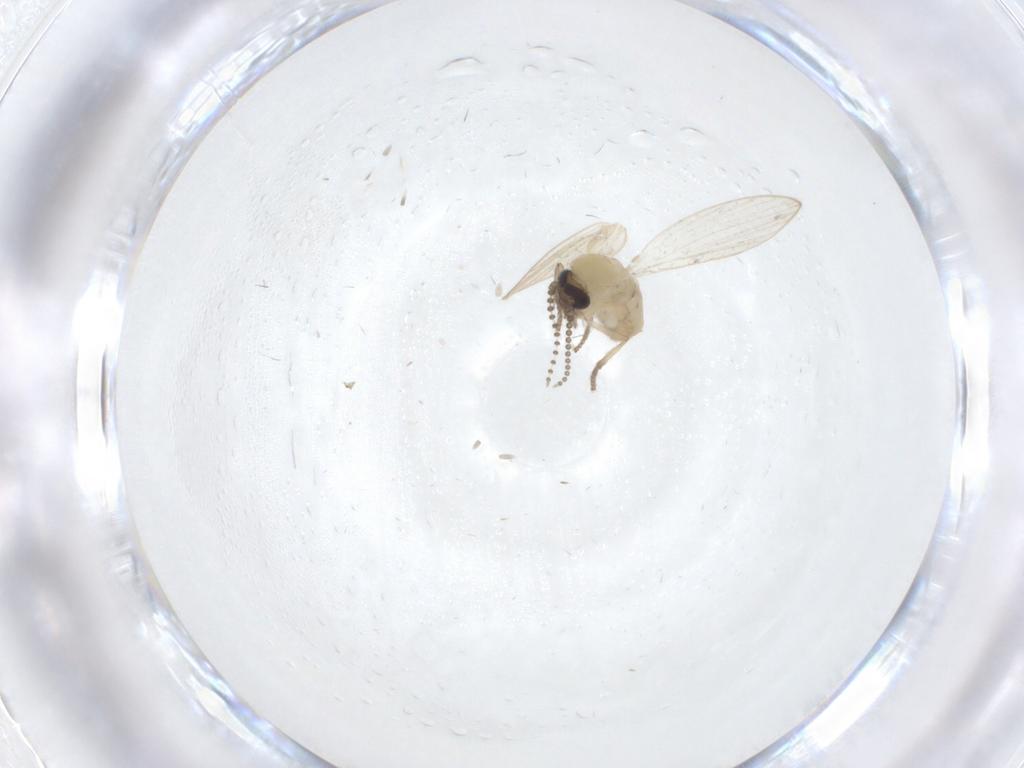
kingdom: Animalia
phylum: Arthropoda
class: Insecta
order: Diptera
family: Psychodidae
